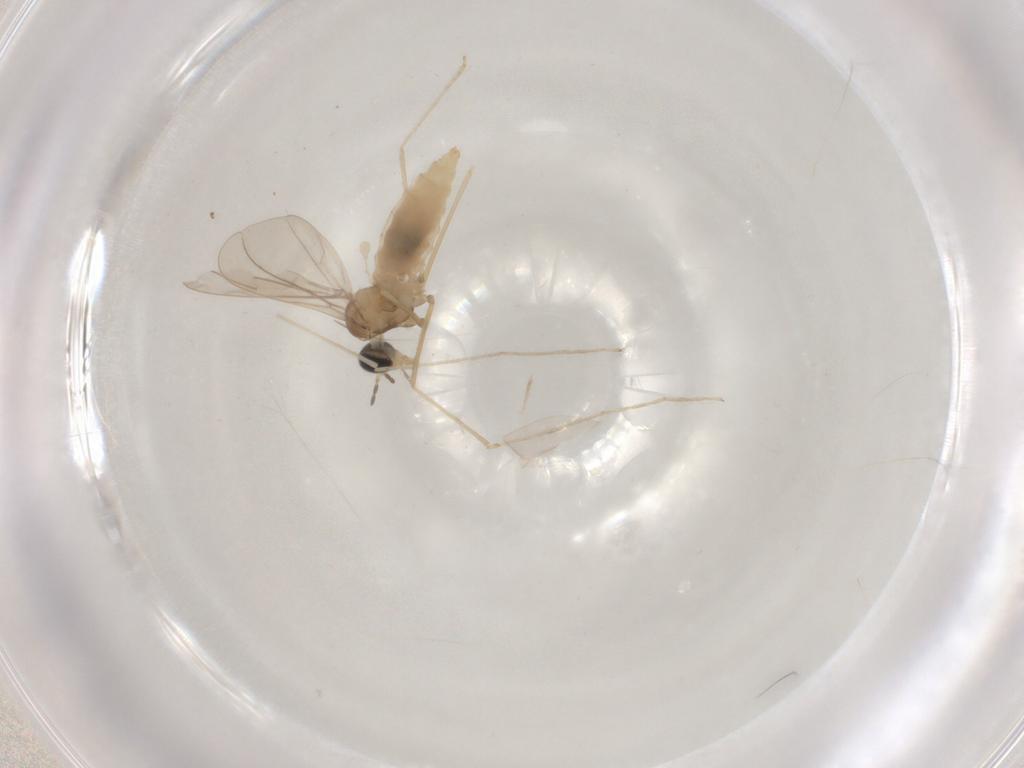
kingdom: Animalia
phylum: Arthropoda
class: Insecta
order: Diptera
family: Cecidomyiidae
